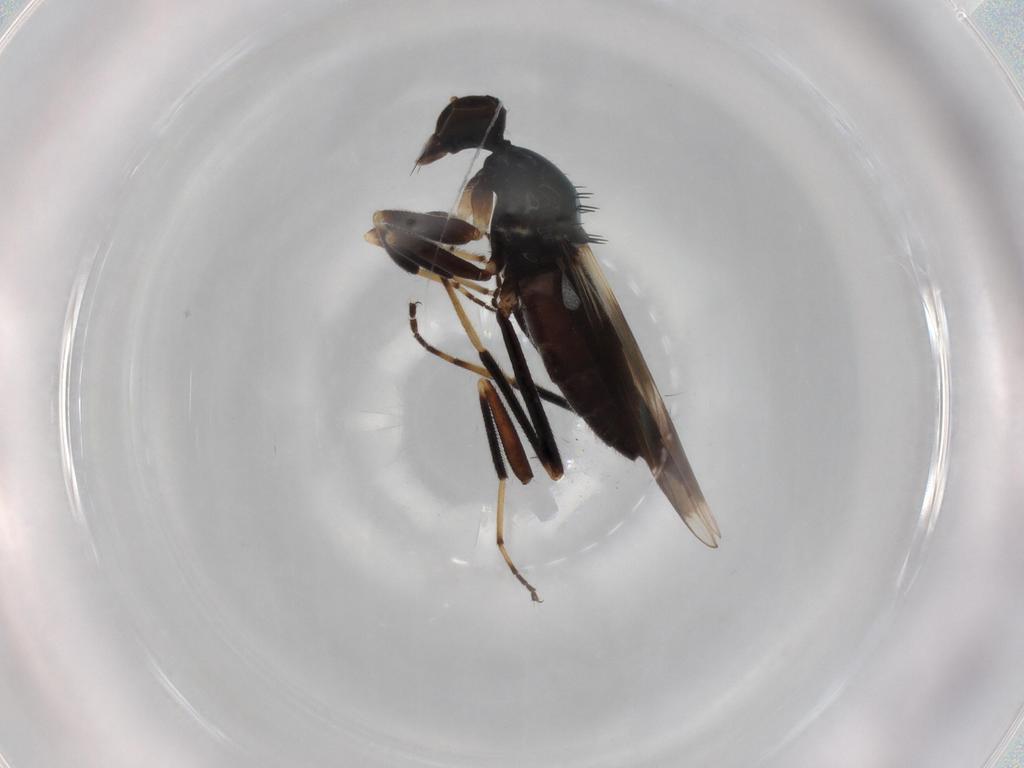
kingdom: Animalia
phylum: Arthropoda
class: Insecta
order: Diptera
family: Hybotidae
